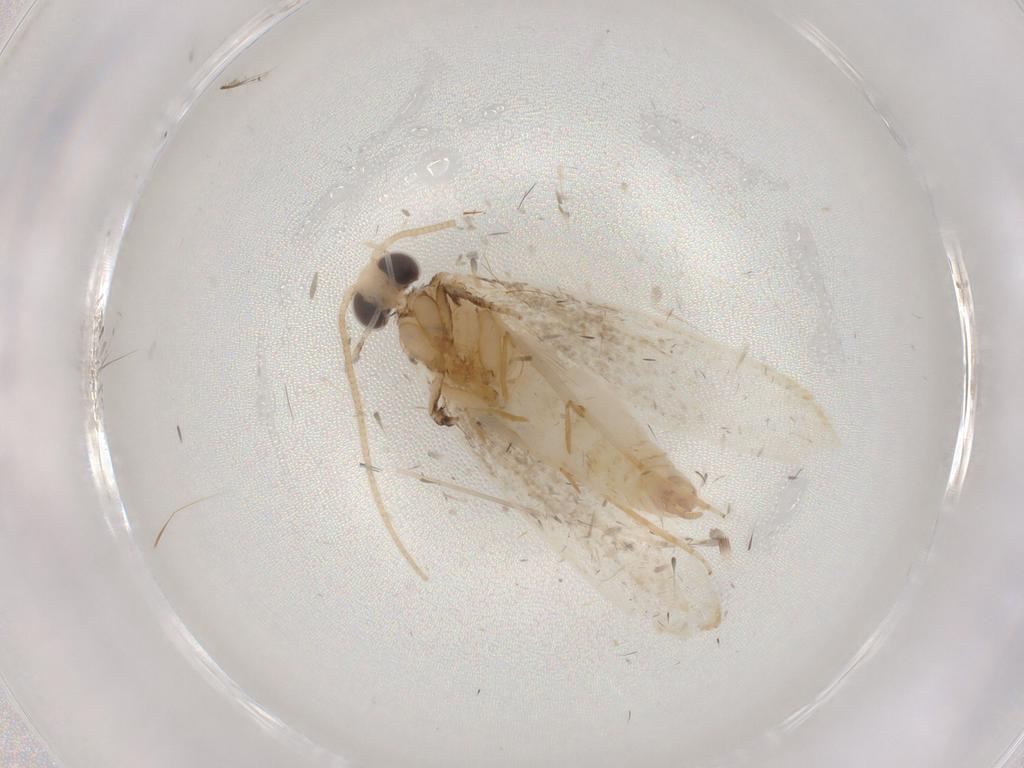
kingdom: Animalia
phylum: Arthropoda
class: Insecta
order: Lepidoptera
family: Tineidae
